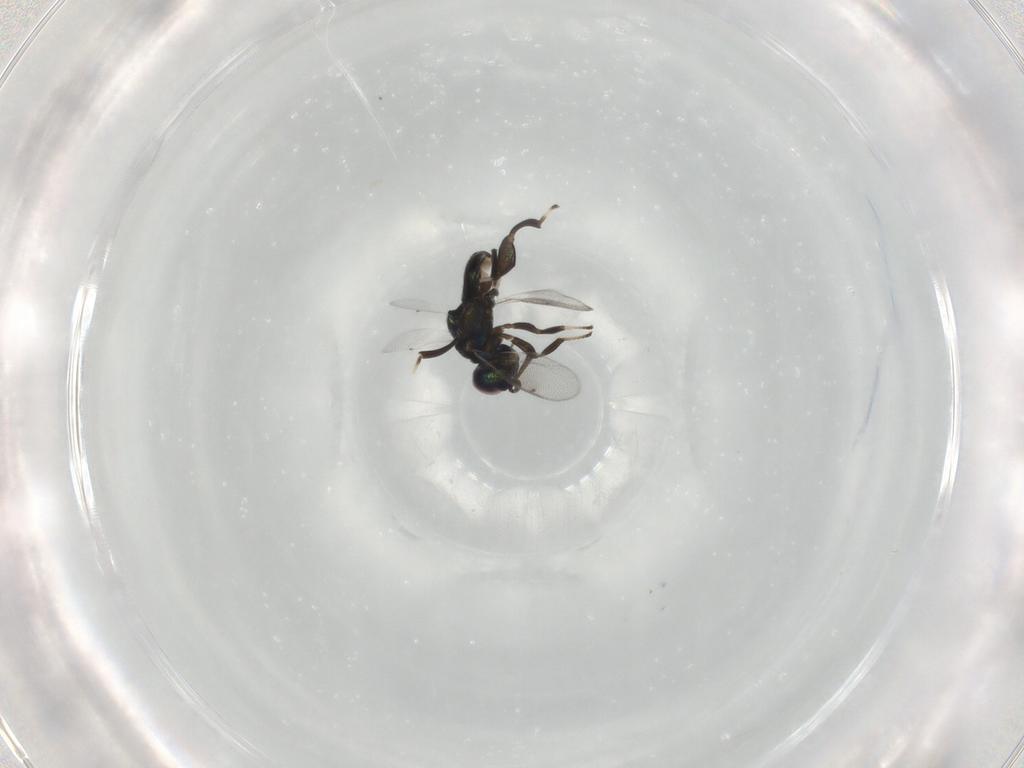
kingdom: Animalia
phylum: Arthropoda
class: Insecta
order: Hymenoptera
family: Pteromalidae
